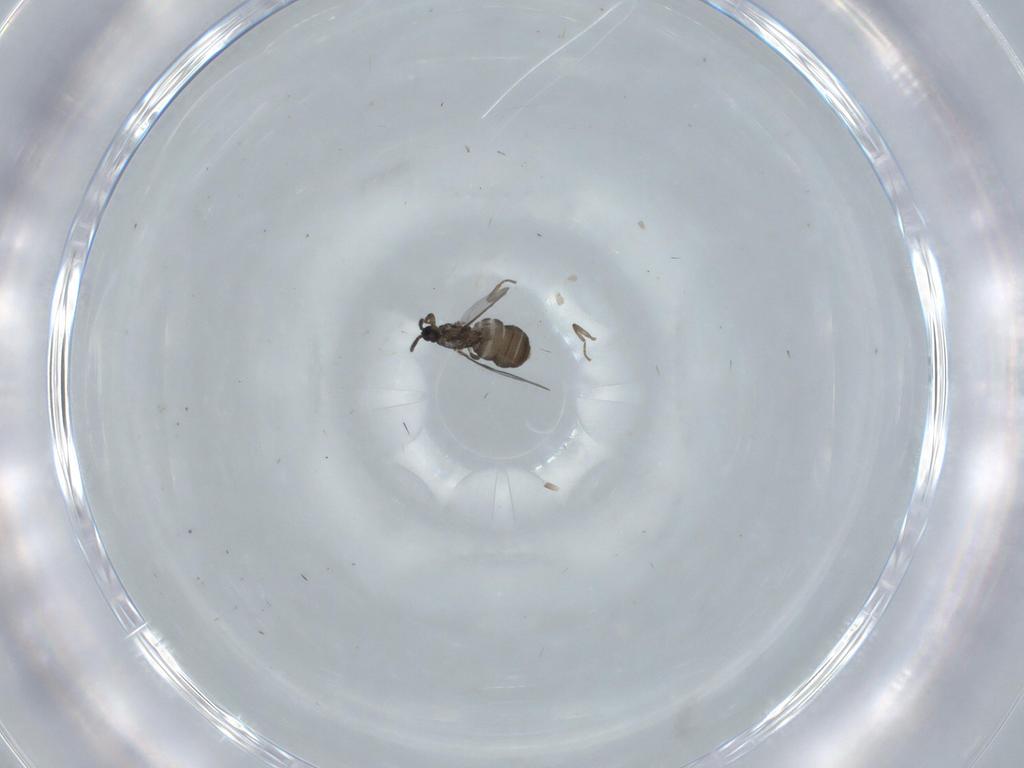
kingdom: Animalia
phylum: Arthropoda
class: Insecta
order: Diptera
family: Scatopsidae
